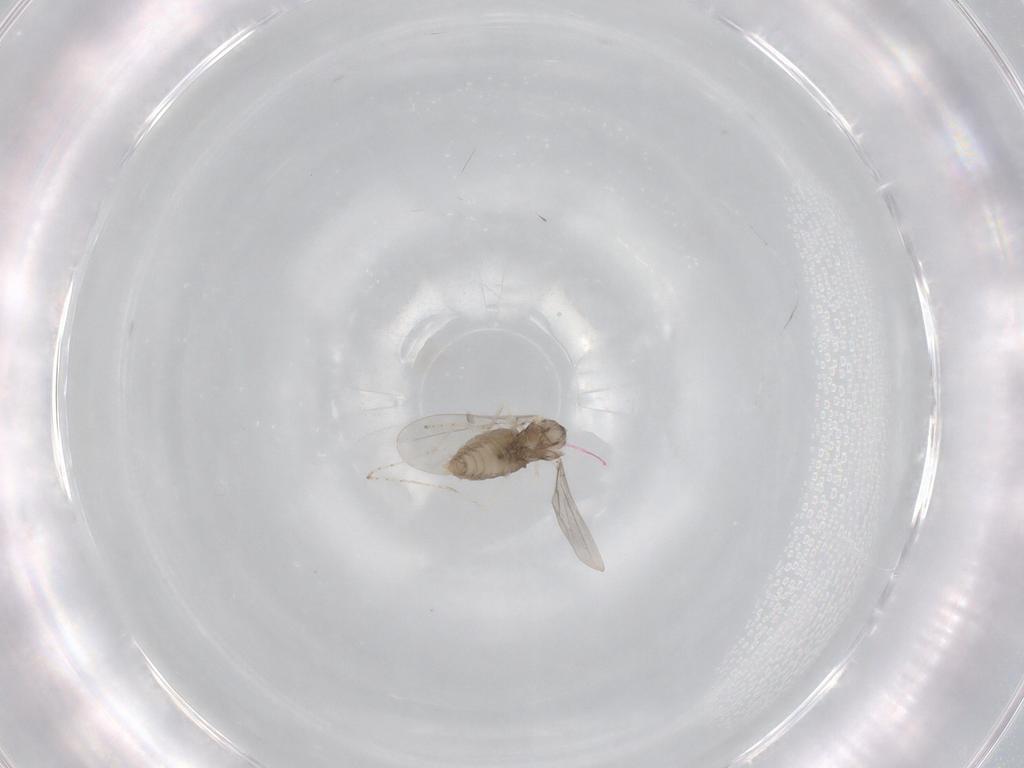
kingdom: Animalia
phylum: Arthropoda
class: Insecta
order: Diptera
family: Cecidomyiidae
